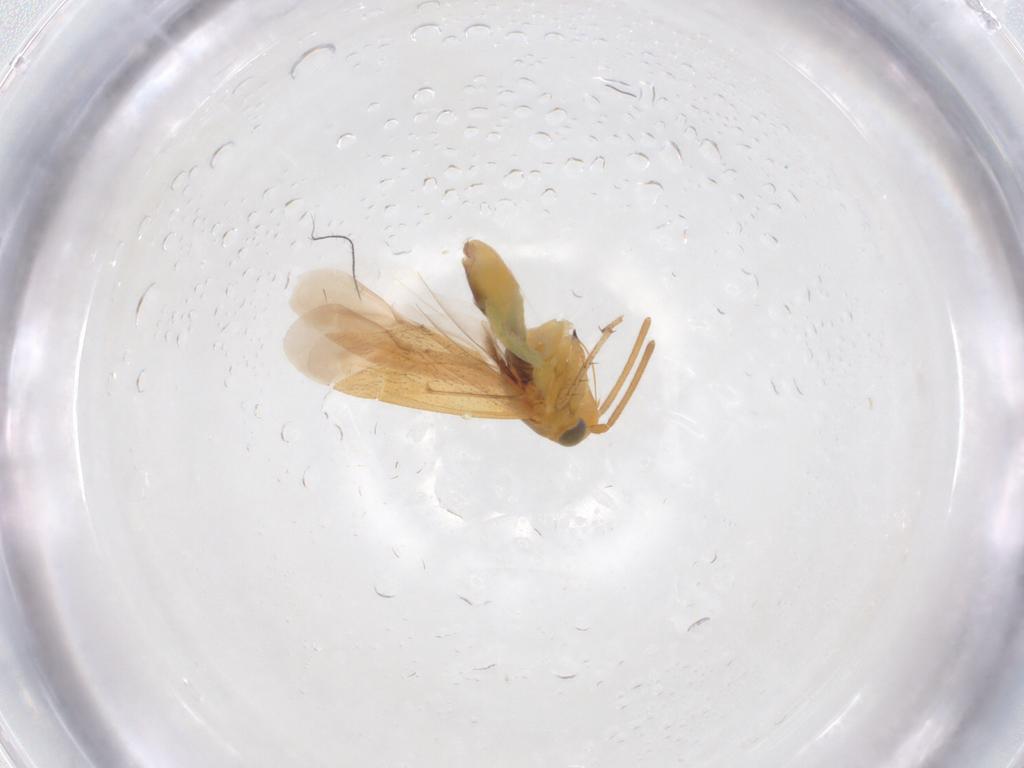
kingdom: Animalia
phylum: Arthropoda
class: Insecta
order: Hemiptera
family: Miridae
